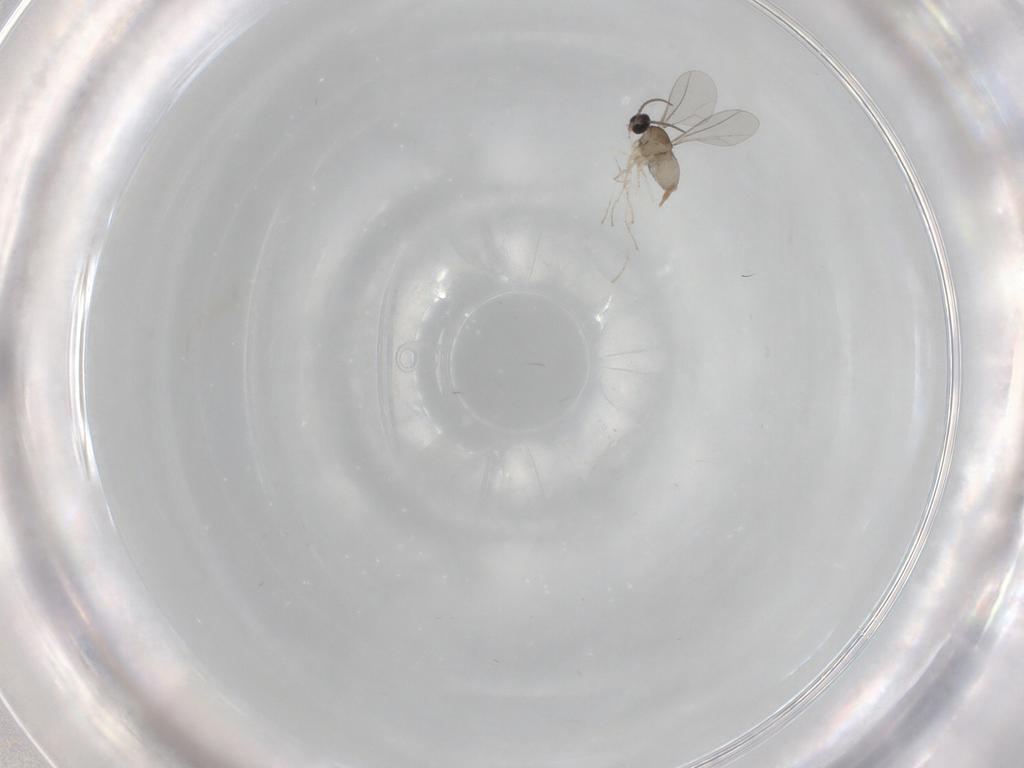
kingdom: Animalia
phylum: Arthropoda
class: Insecta
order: Diptera
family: Cecidomyiidae
